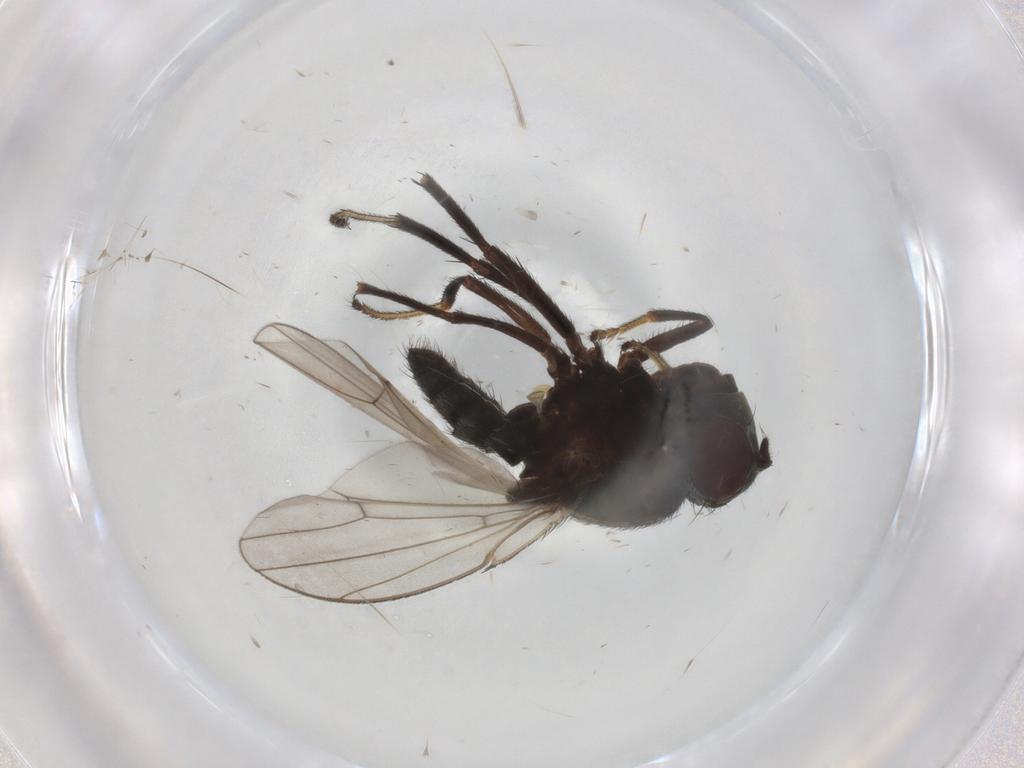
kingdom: Animalia
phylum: Arthropoda
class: Insecta
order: Diptera
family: Ephydridae
